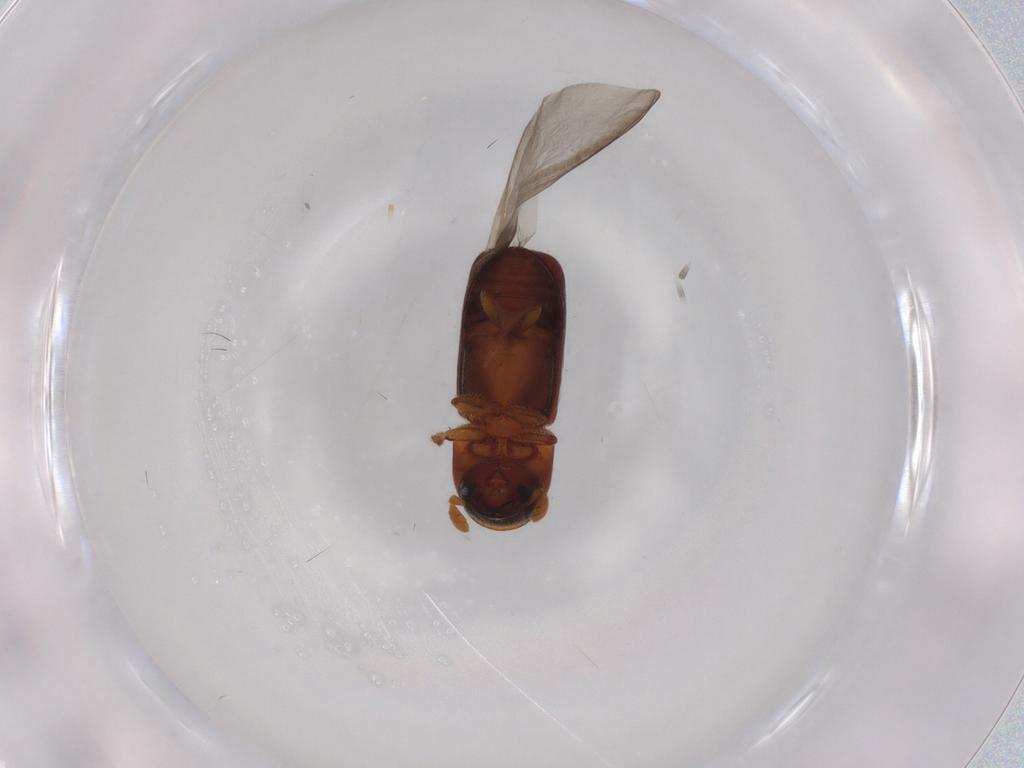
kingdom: Animalia
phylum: Arthropoda
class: Insecta
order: Coleoptera
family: Curculionidae
